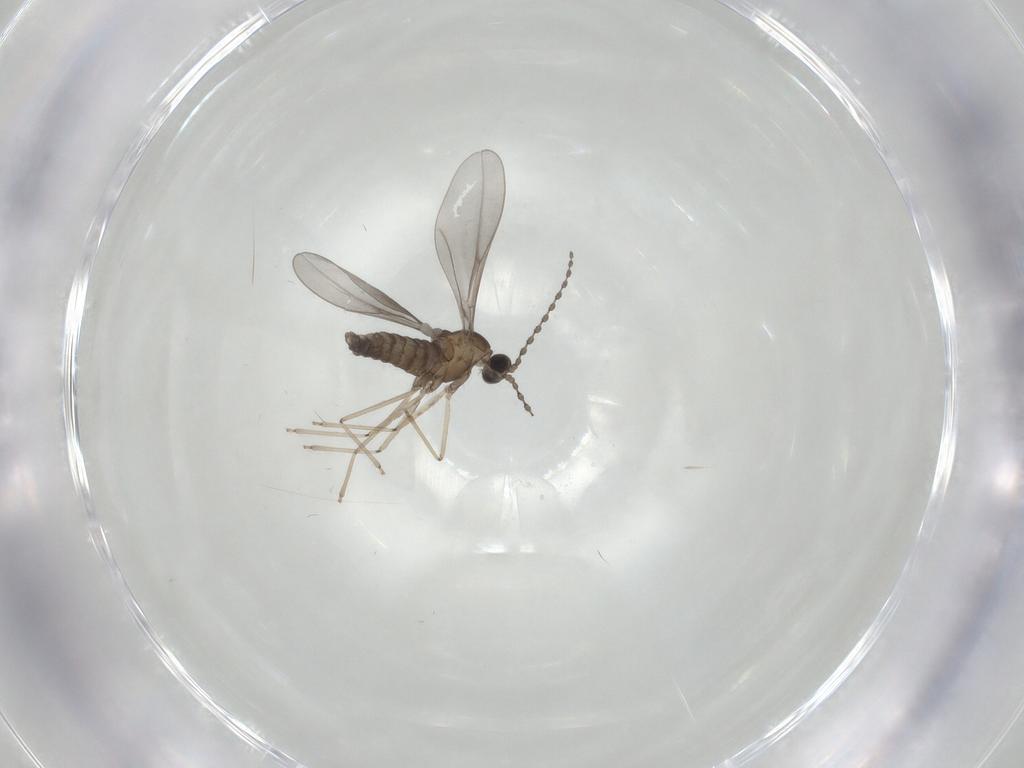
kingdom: Animalia
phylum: Arthropoda
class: Insecta
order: Diptera
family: Cecidomyiidae
